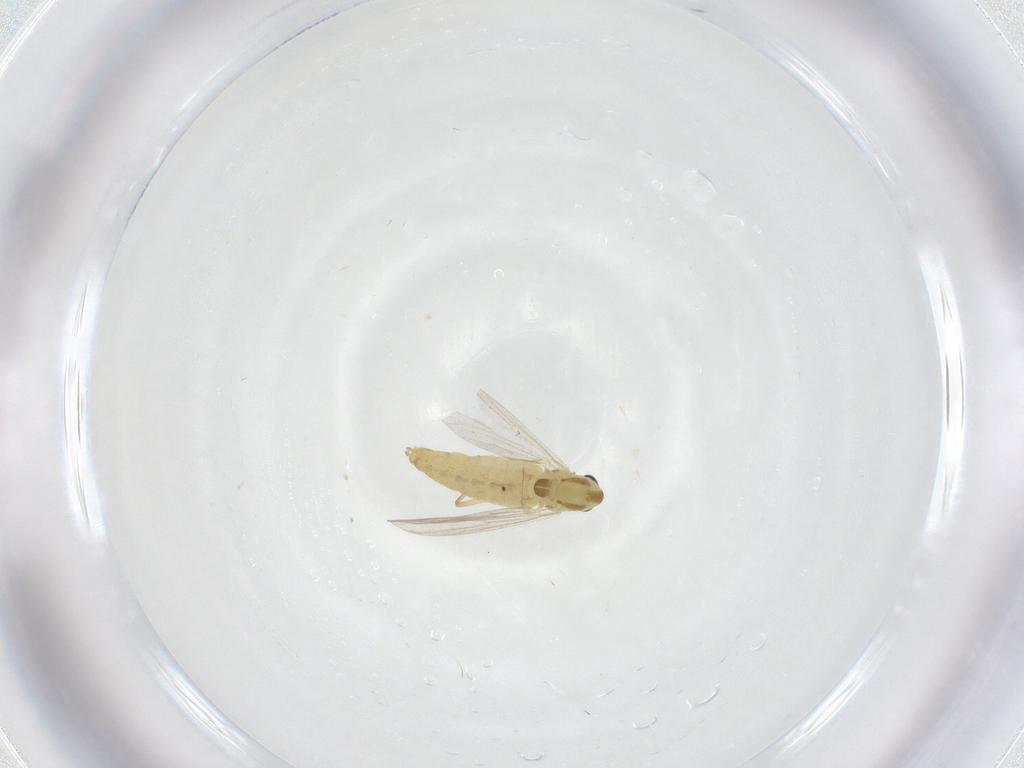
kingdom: Animalia
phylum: Arthropoda
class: Insecta
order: Diptera
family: Chironomidae
